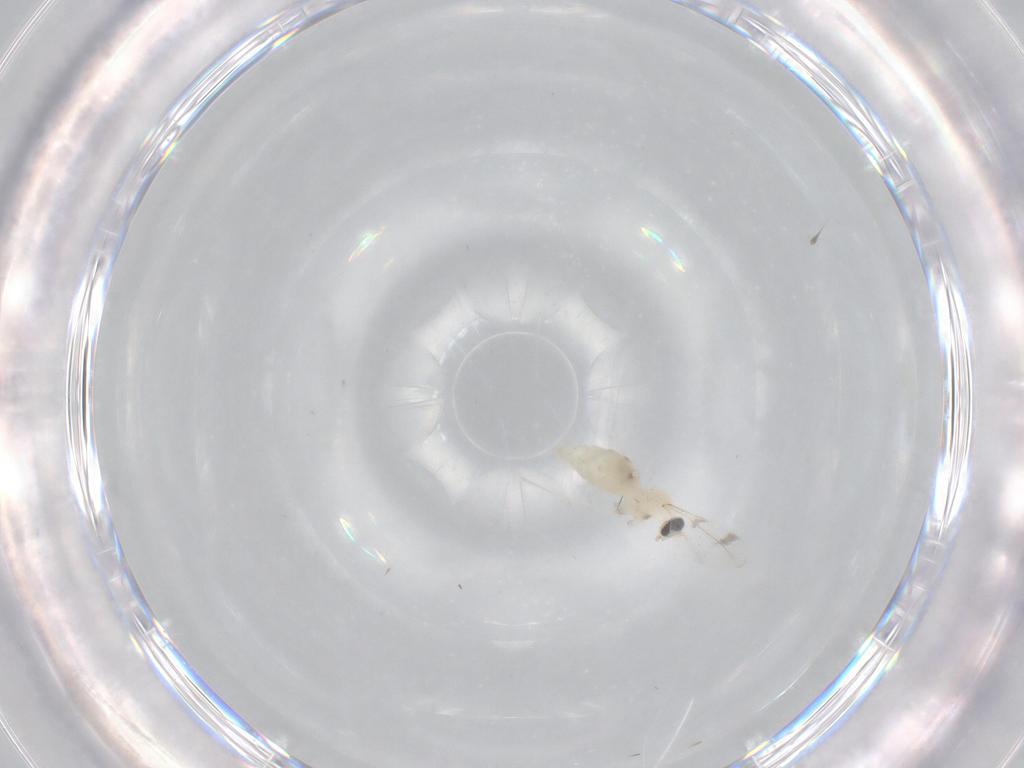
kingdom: Animalia
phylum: Arthropoda
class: Insecta
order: Diptera
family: Cecidomyiidae
